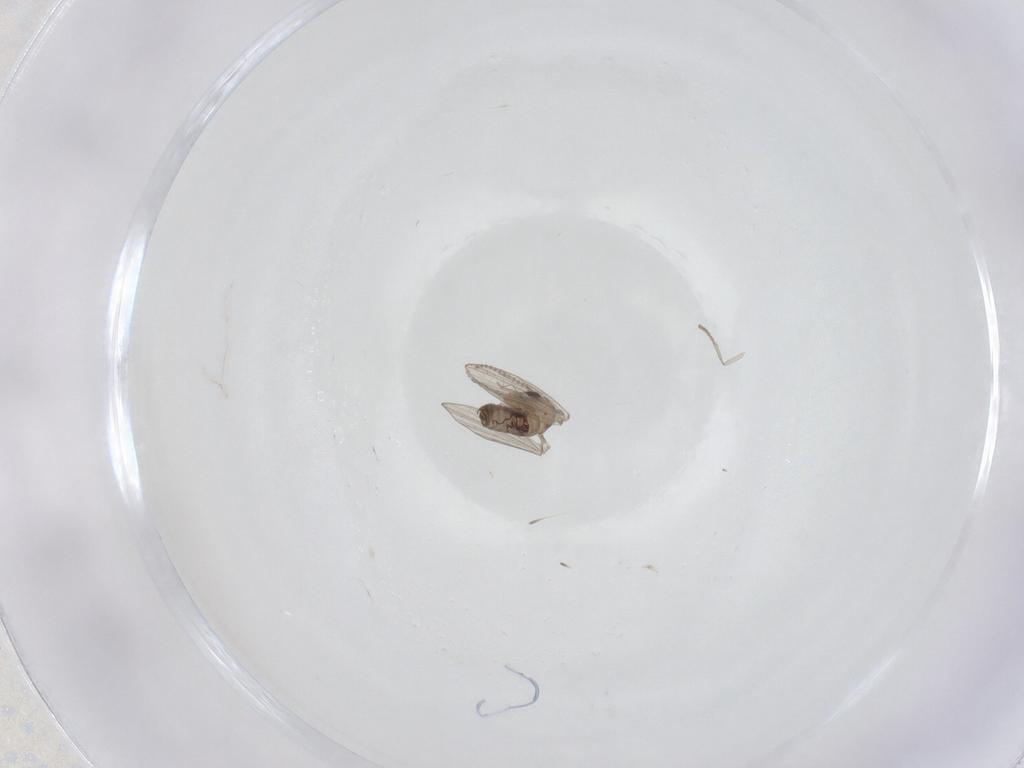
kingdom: Animalia
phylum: Arthropoda
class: Insecta
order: Diptera
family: Psychodidae
